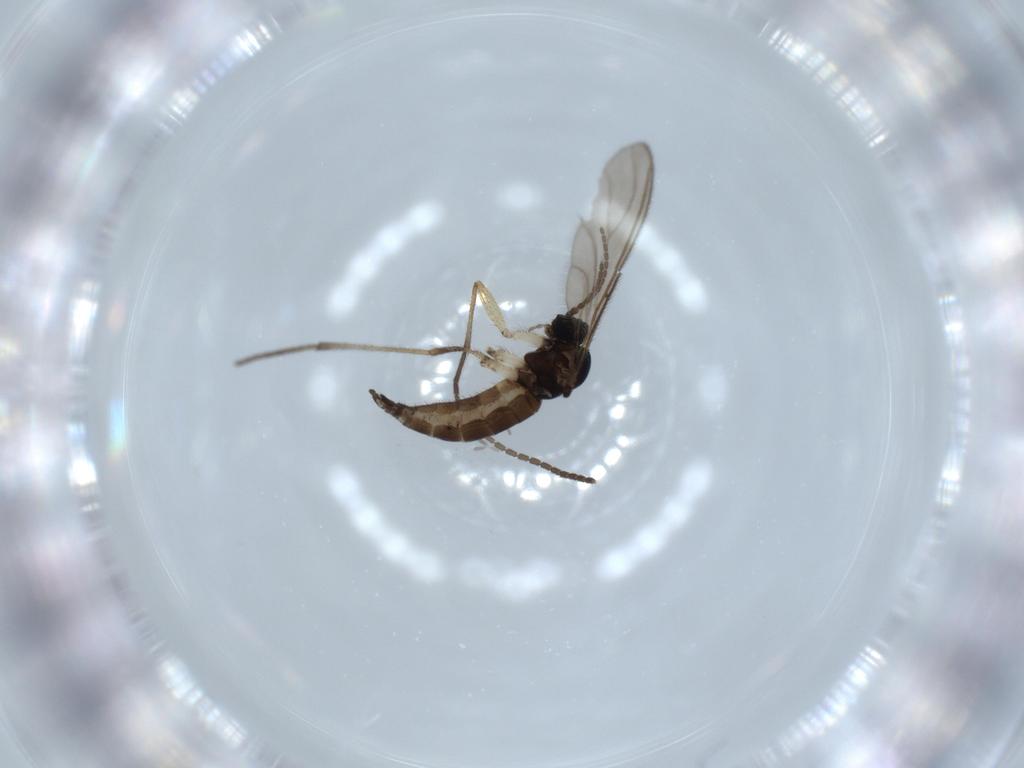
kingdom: Animalia
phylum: Arthropoda
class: Insecta
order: Diptera
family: Sciaridae
